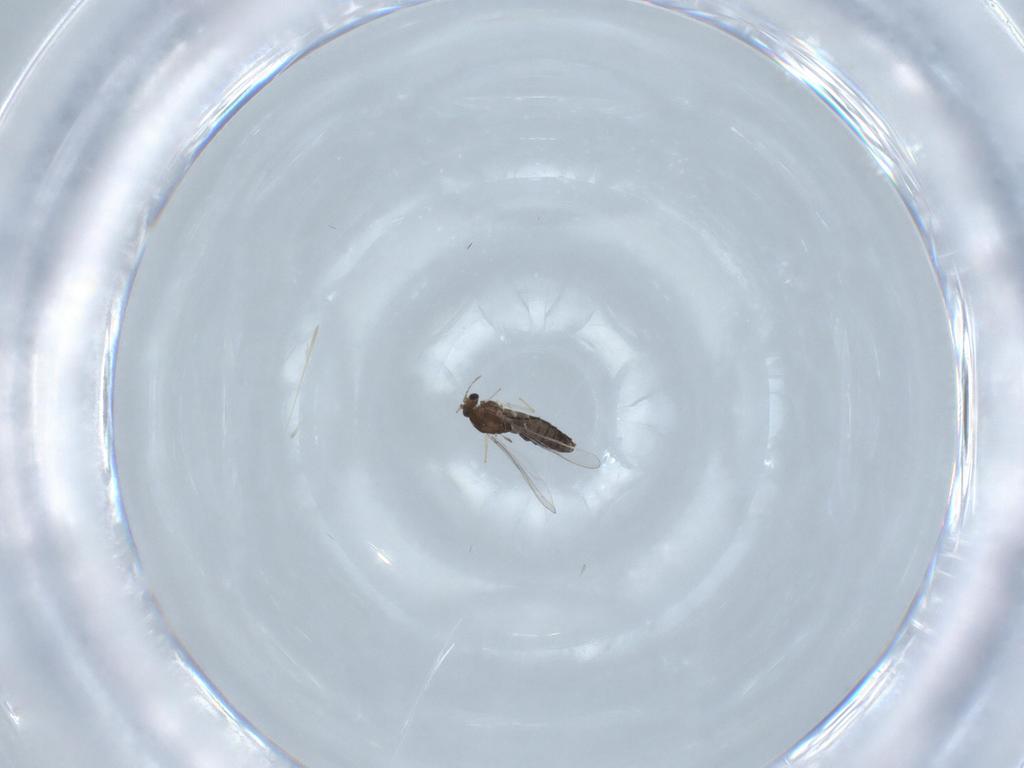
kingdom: Animalia
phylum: Arthropoda
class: Insecta
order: Diptera
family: Chironomidae
